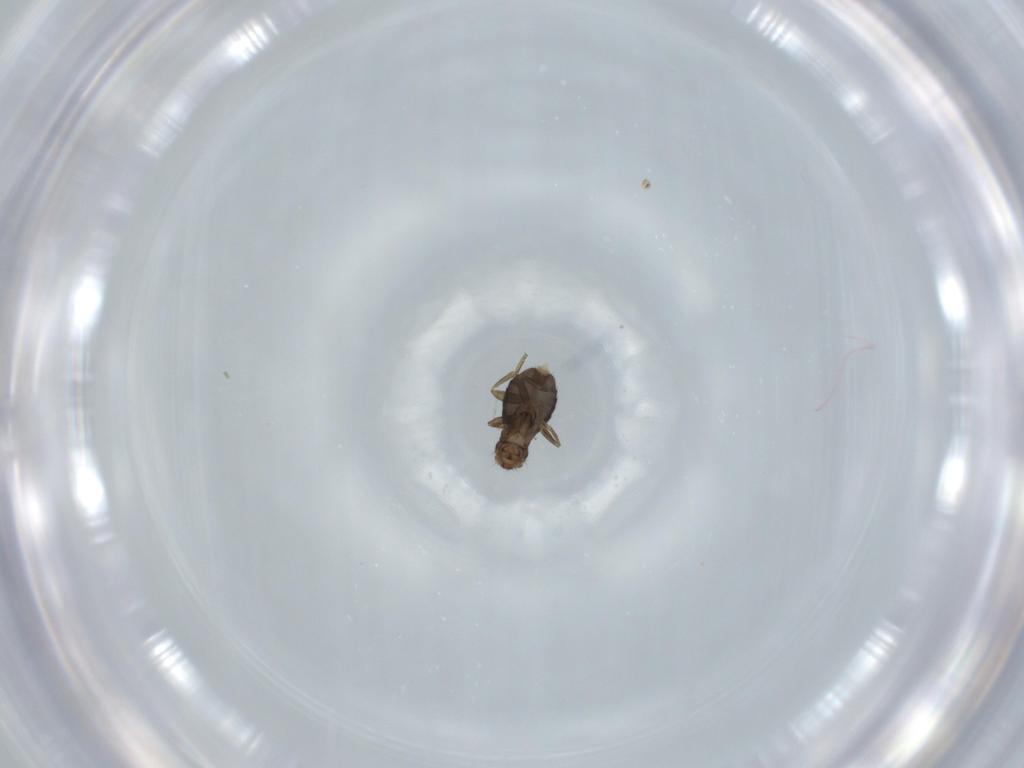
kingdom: Animalia
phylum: Arthropoda
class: Insecta
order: Diptera
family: Phoridae
